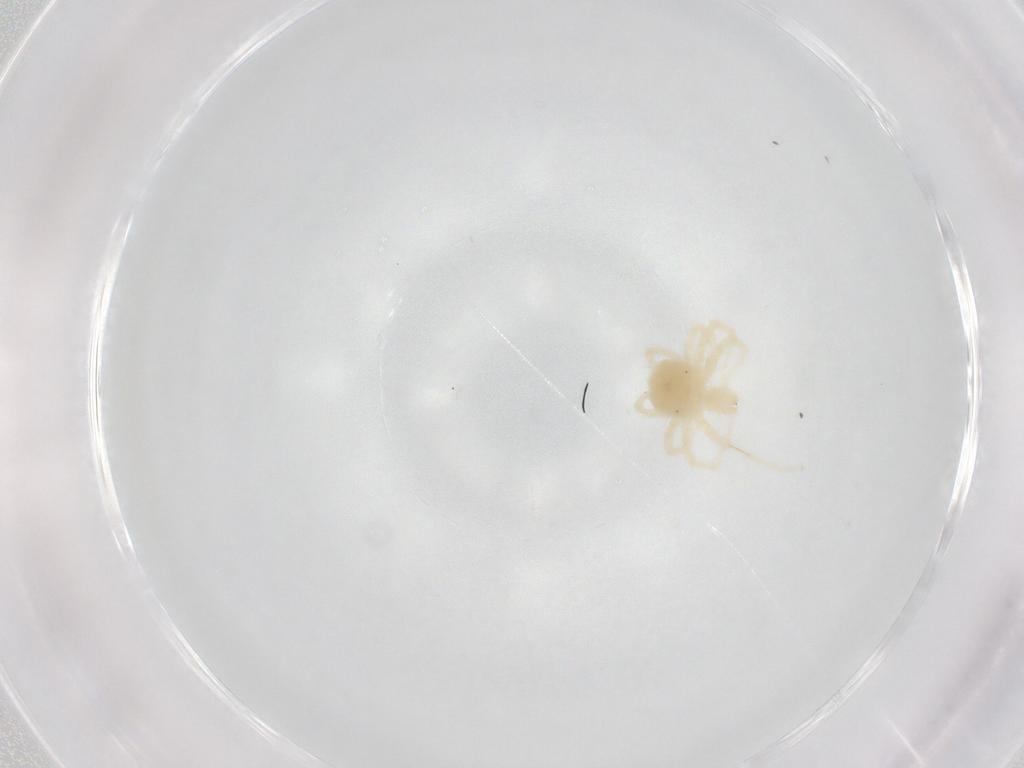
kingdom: Animalia
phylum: Arthropoda
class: Arachnida
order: Trombidiformes
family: Anystidae
